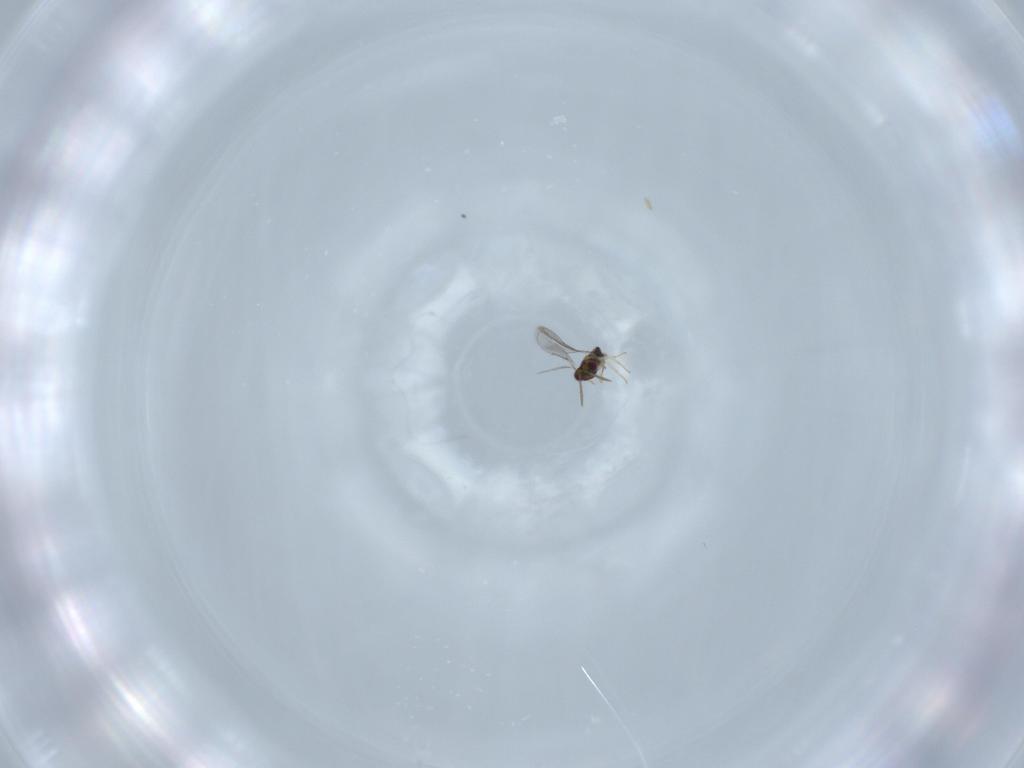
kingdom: Animalia
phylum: Arthropoda
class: Insecta
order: Hymenoptera
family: Aphelinidae
